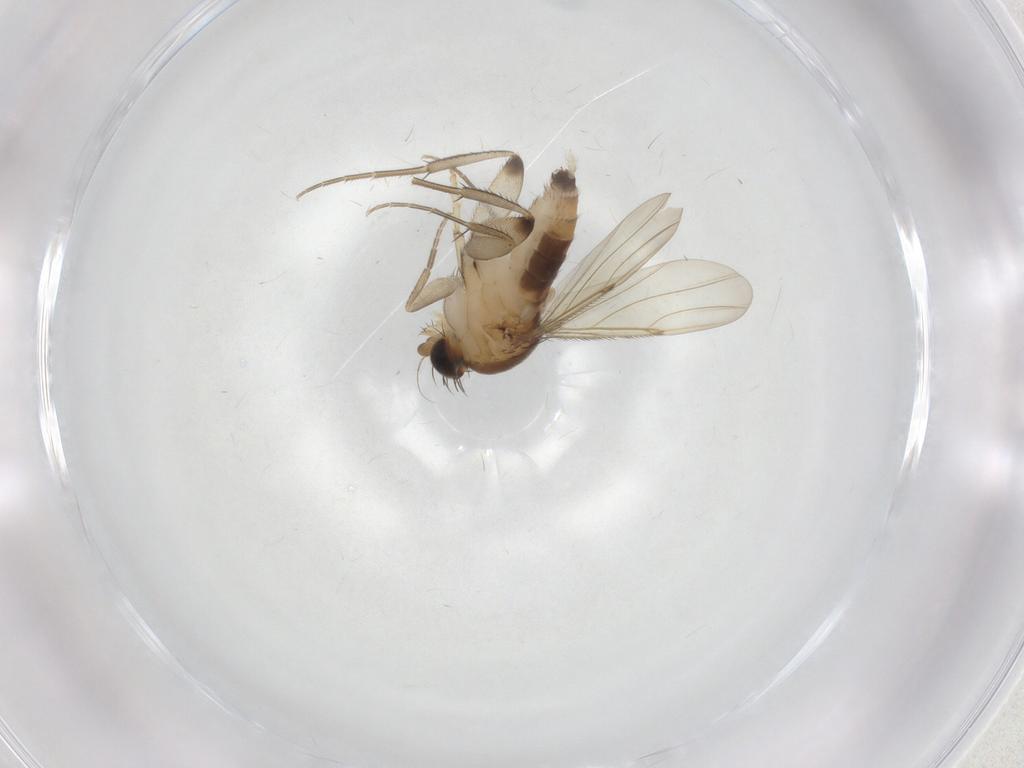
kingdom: Animalia
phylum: Arthropoda
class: Insecta
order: Diptera
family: Phoridae
